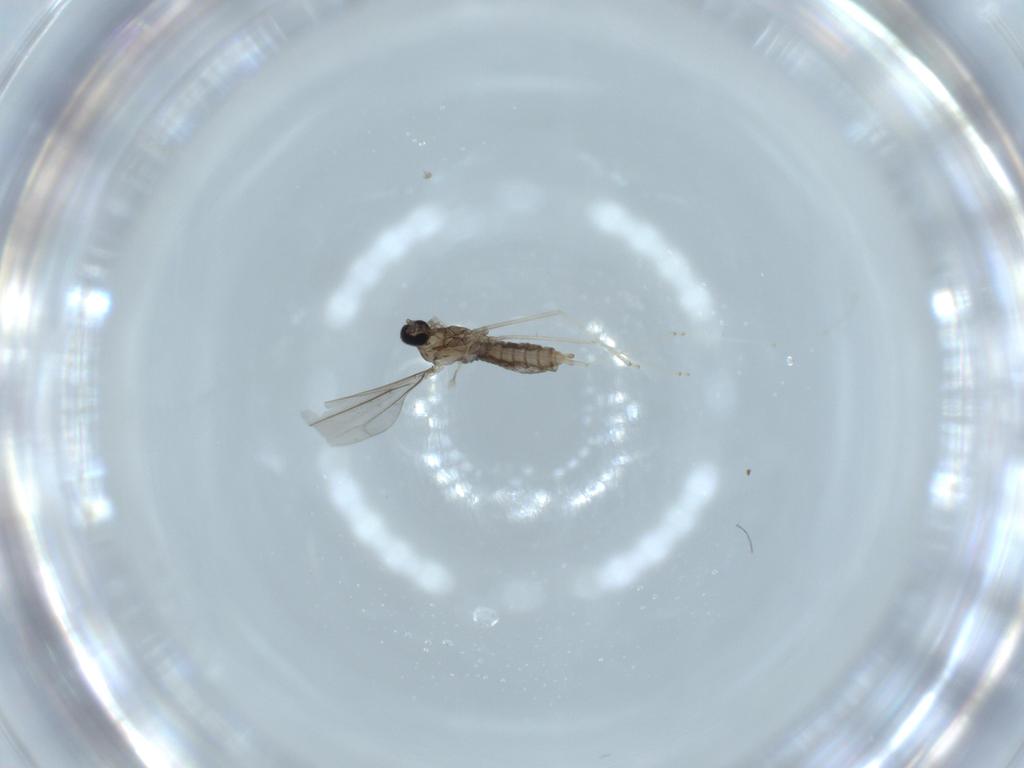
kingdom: Animalia
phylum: Arthropoda
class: Insecta
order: Diptera
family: Cecidomyiidae
